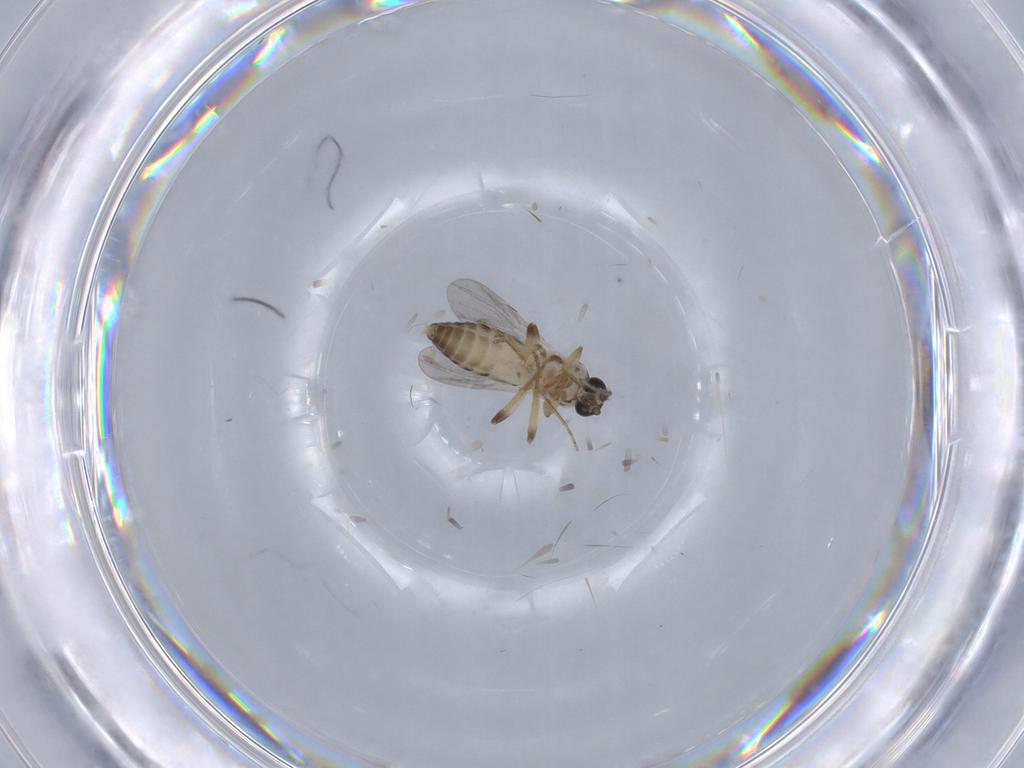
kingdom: Animalia
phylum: Arthropoda
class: Insecta
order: Diptera
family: Ceratopogonidae
